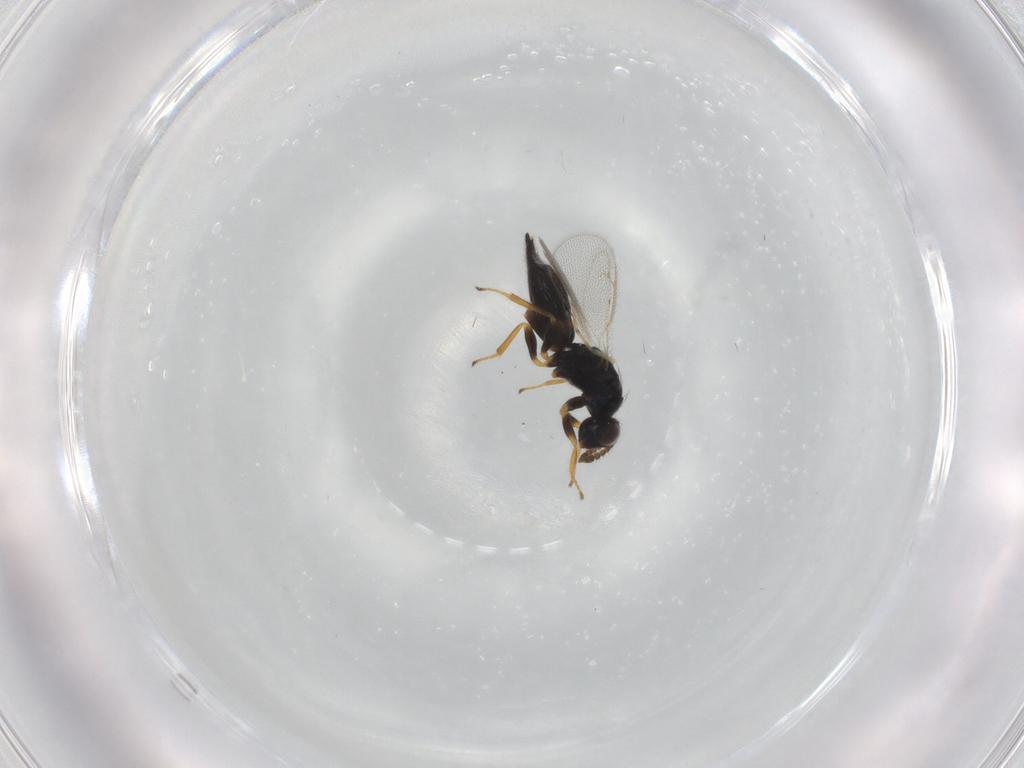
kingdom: Animalia
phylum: Arthropoda
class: Insecta
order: Hymenoptera
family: Eulophidae
